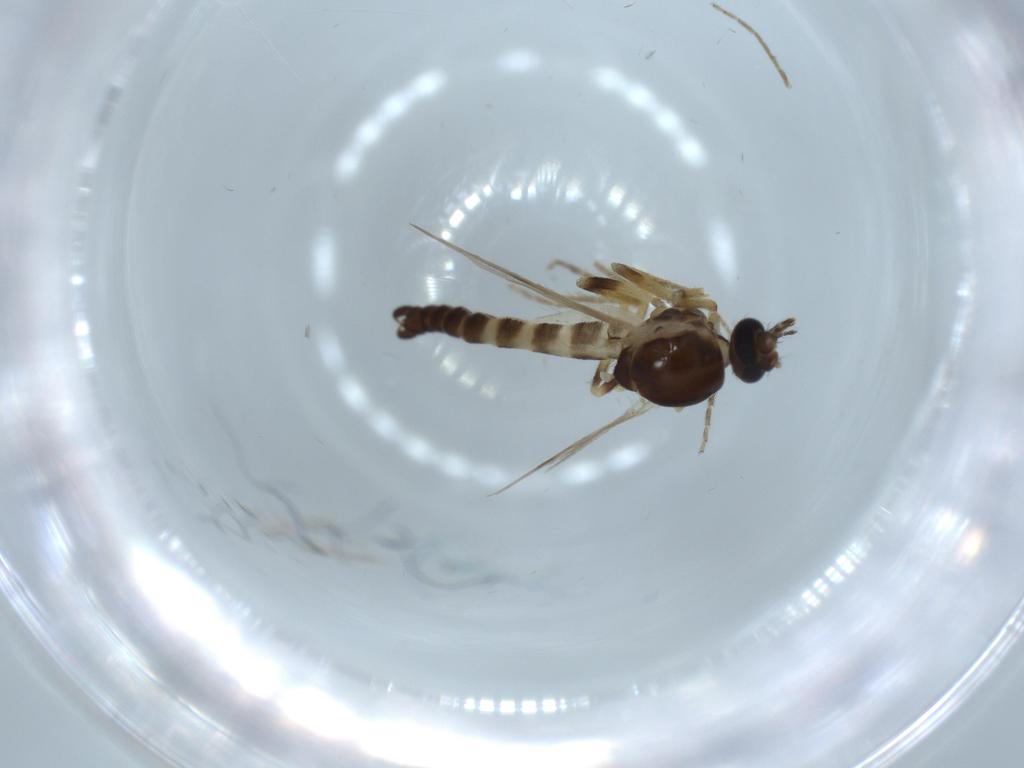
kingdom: Animalia
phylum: Arthropoda
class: Insecta
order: Diptera
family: Ceratopogonidae
